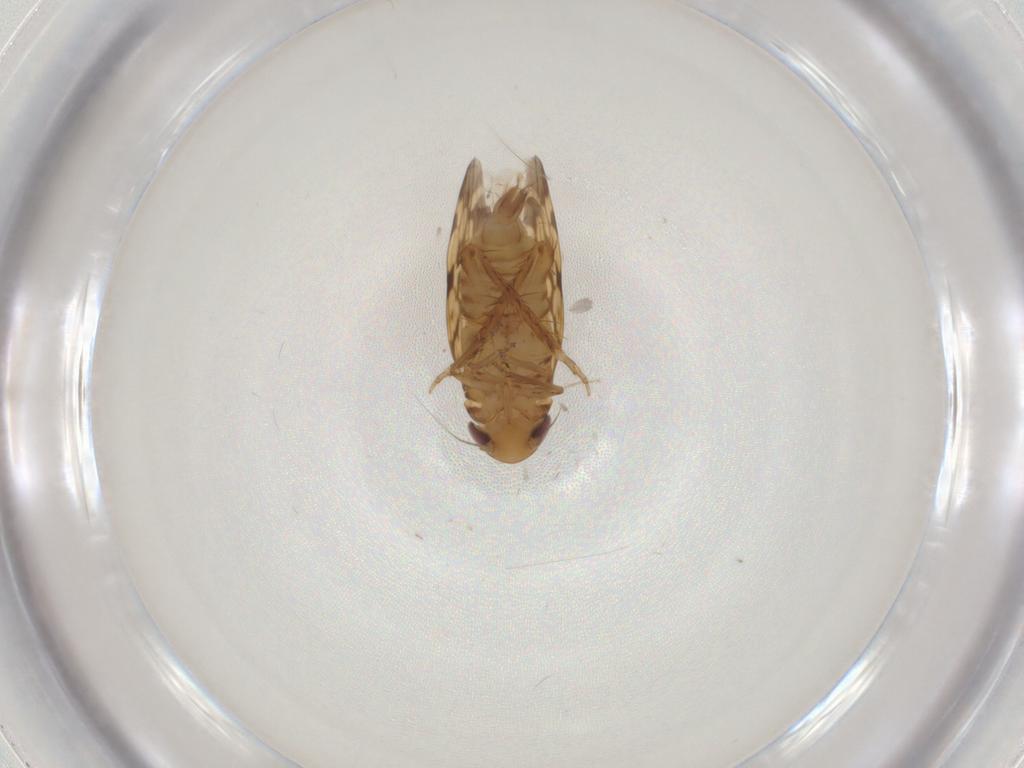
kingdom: Animalia
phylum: Arthropoda
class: Insecta
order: Hemiptera
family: Cicadellidae
